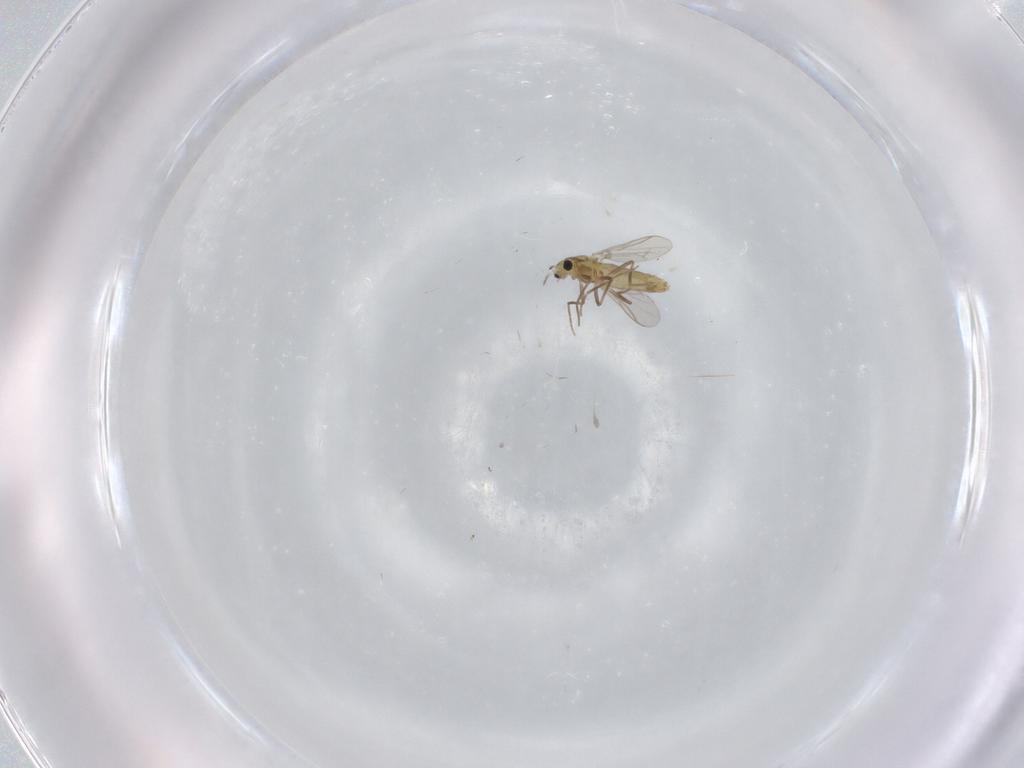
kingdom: Animalia
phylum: Arthropoda
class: Insecta
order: Diptera
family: Chironomidae
